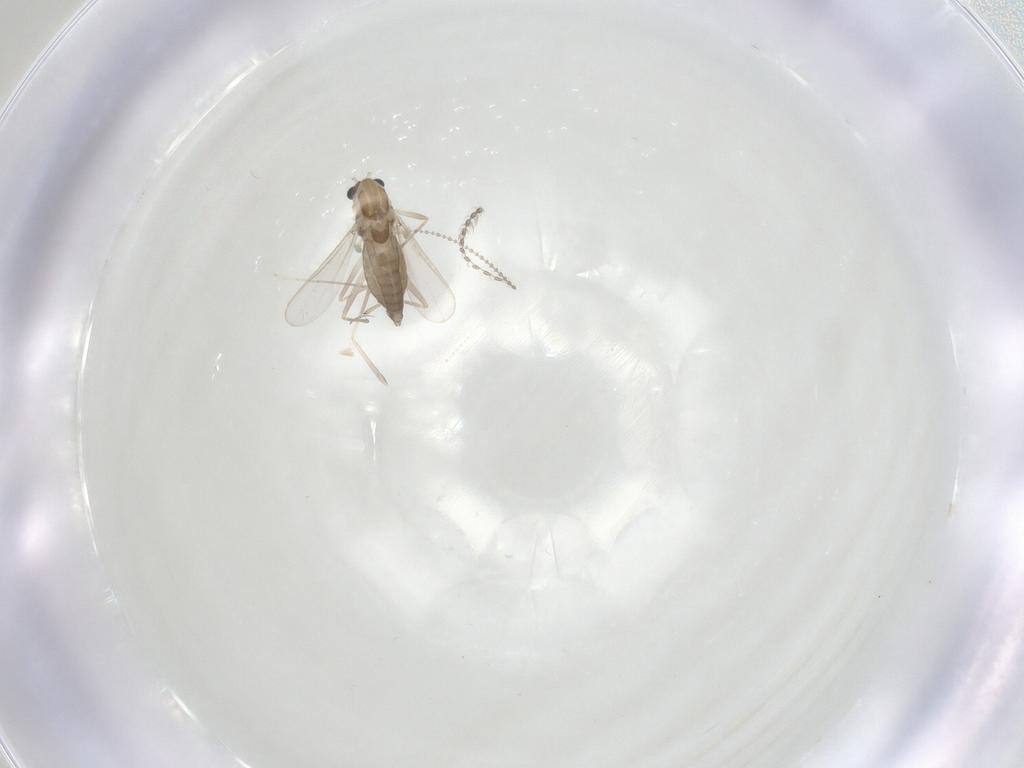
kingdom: Animalia
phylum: Arthropoda
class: Insecta
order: Diptera
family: Chironomidae
